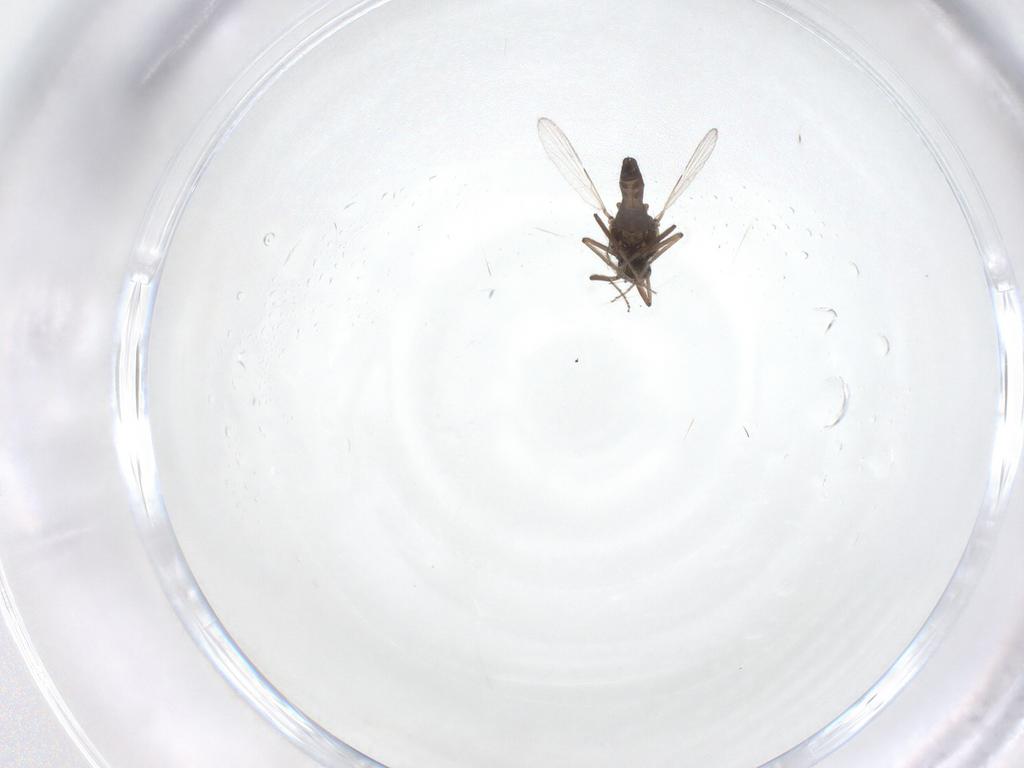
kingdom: Animalia
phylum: Arthropoda
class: Insecta
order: Diptera
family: Ceratopogonidae
